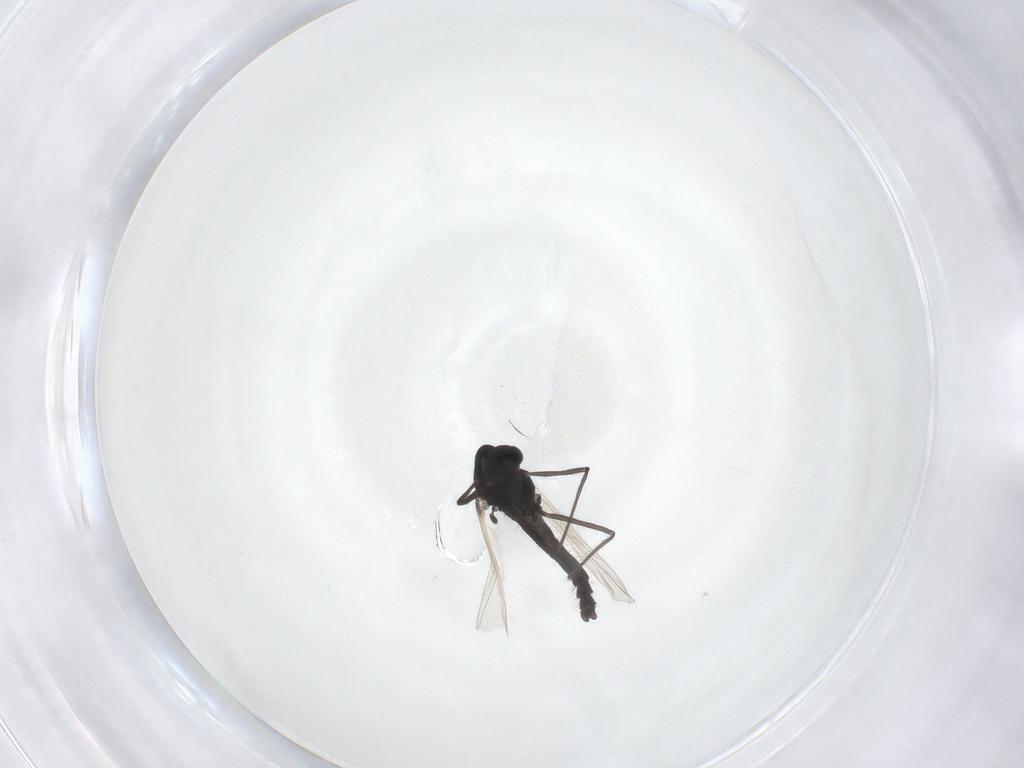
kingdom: Animalia
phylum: Arthropoda
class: Insecta
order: Diptera
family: Chironomidae
